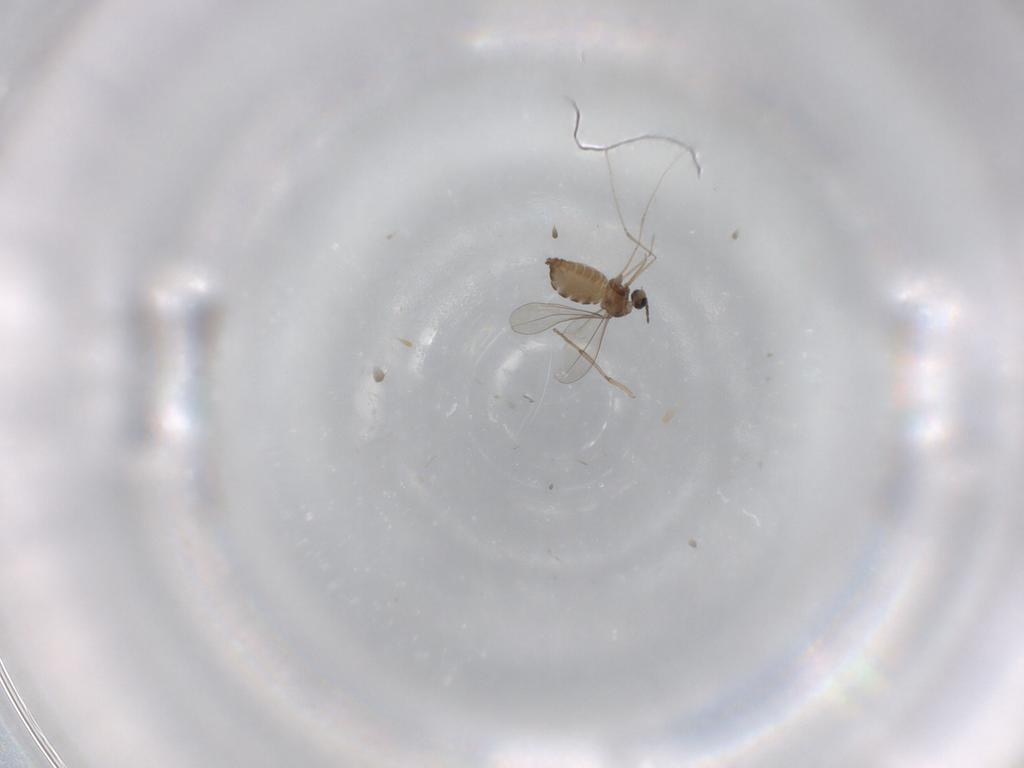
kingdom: Animalia
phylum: Arthropoda
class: Insecta
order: Diptera
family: Cecidomyiidae
